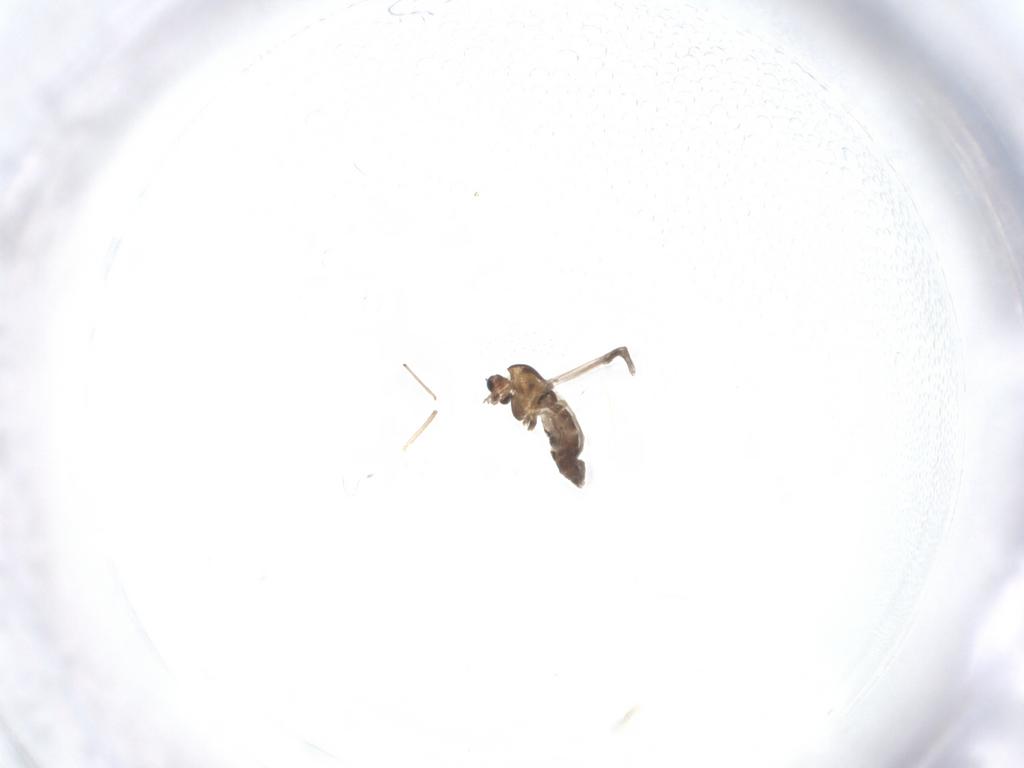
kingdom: Animalia
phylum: Arthropoda
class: Insecta
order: Diptera
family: Chironomidae
